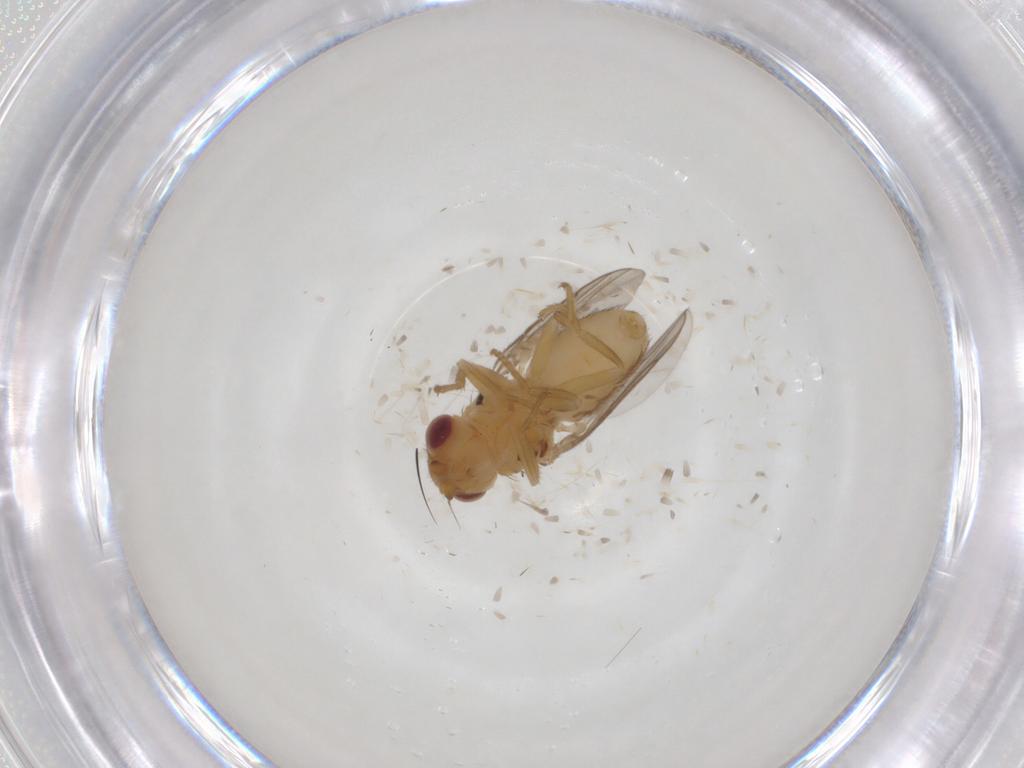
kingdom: Animalia
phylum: Arthropoda
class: Insecta
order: Diptera
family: Chloropidae
